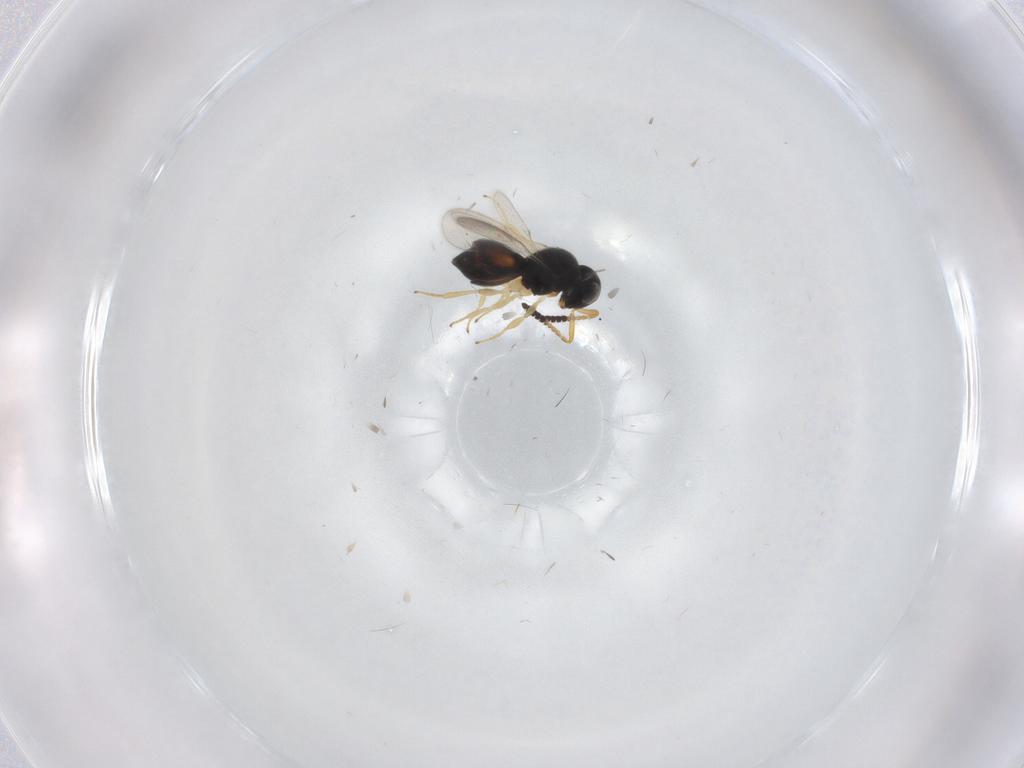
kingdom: Animalia
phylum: Arthropoda
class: Insecta
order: Hymenoptera
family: Scelionidae
